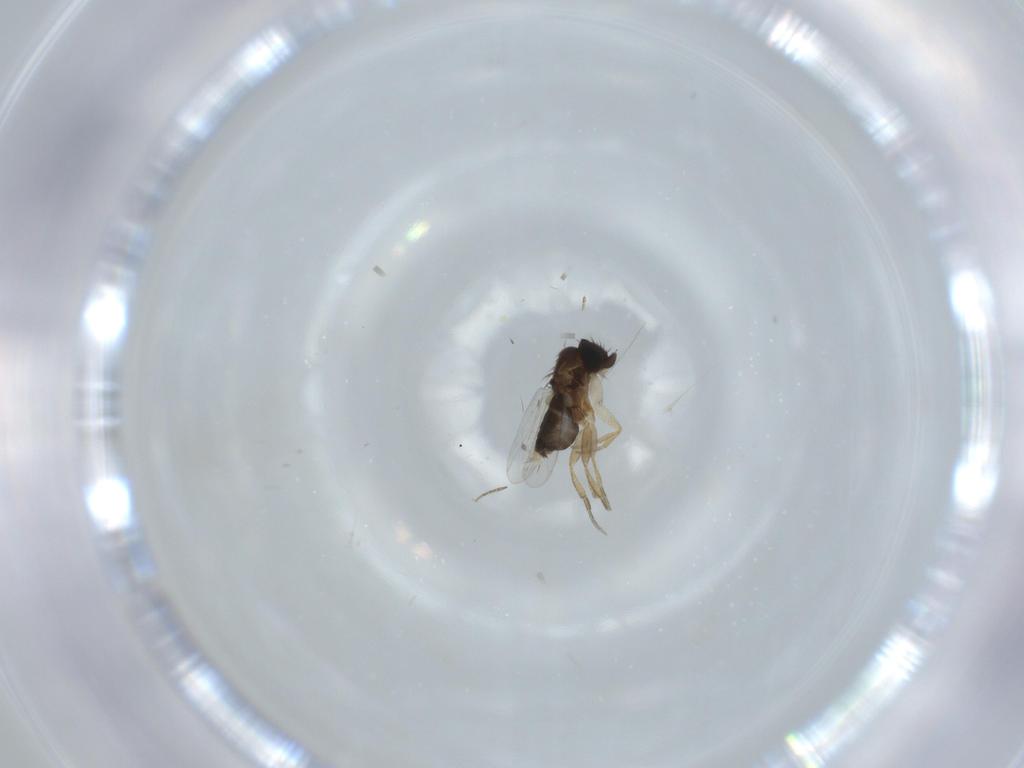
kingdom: Animalia
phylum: Arthropoda
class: Insecta
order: Diptera
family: Phoridae
